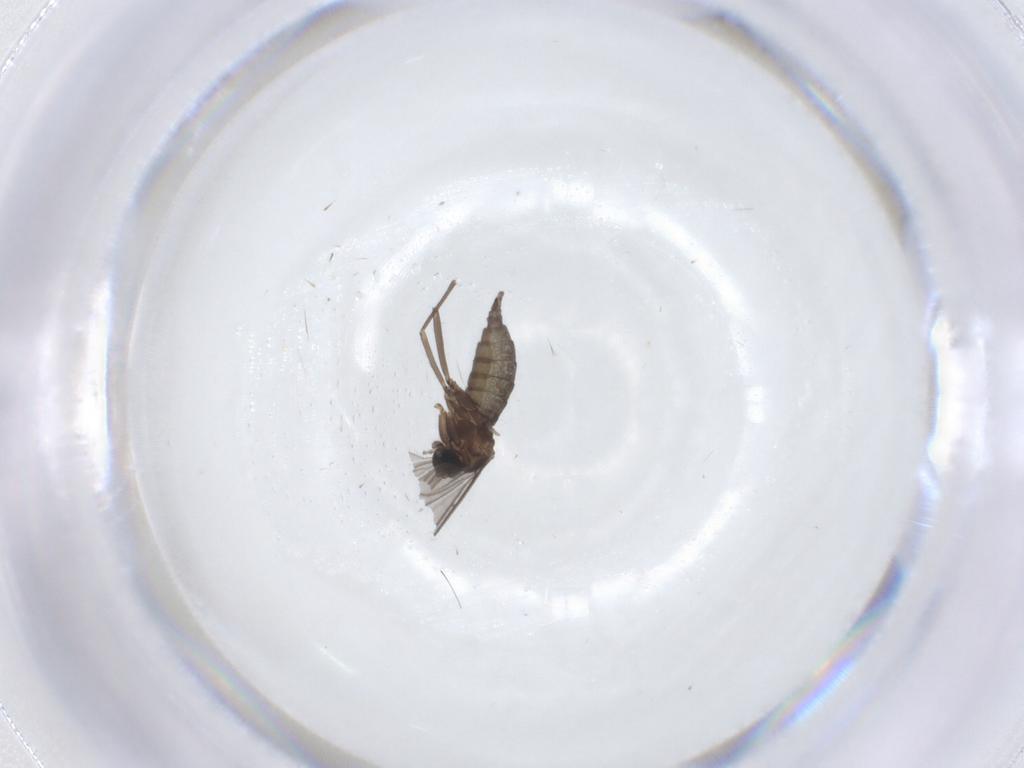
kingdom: Animalia
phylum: Arthropoda
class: Insecta
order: Diptera
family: Sciaridae
